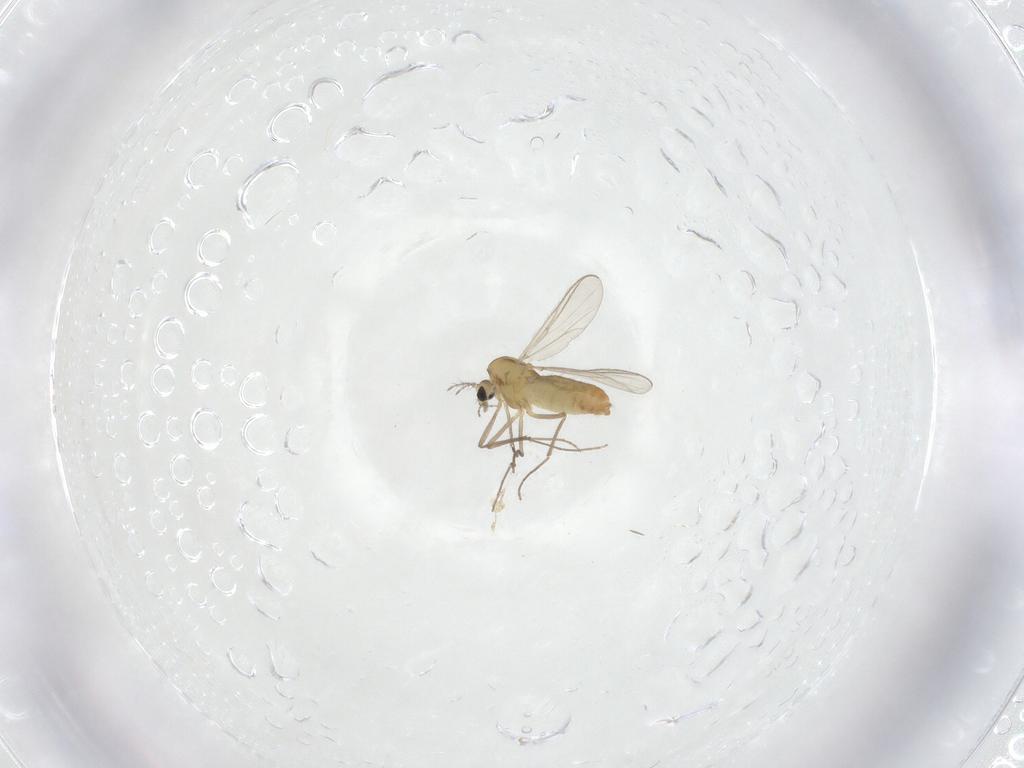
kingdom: Animalia
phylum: Arthropoda
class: Insecta
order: Diptera
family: Chironomidae
